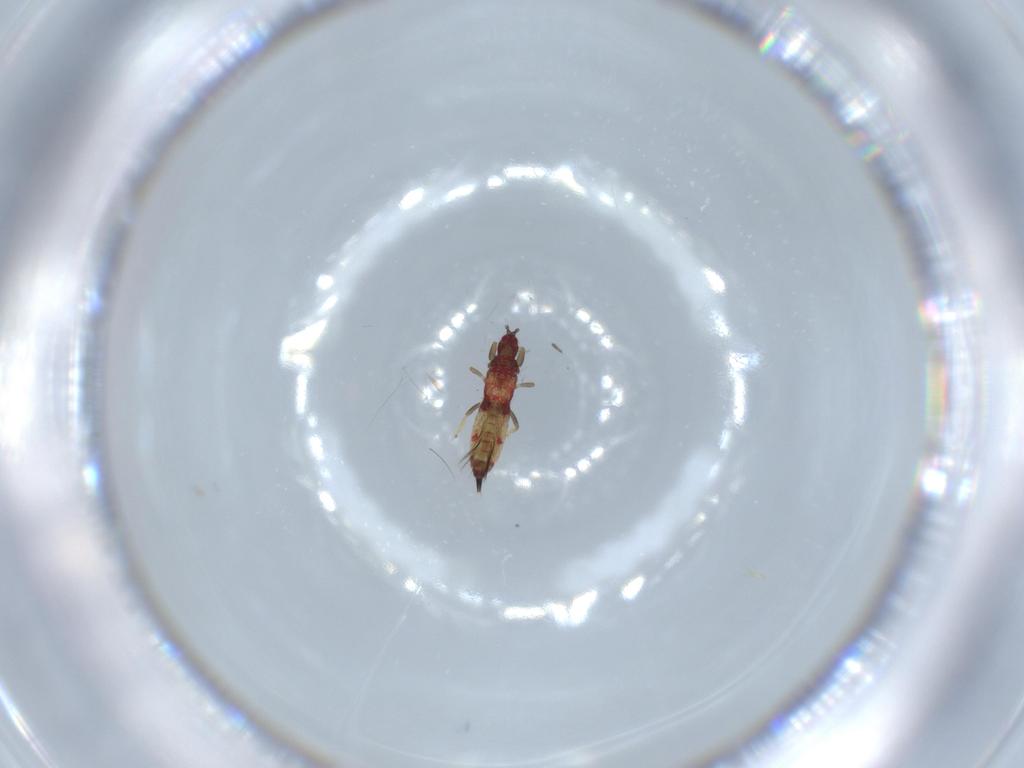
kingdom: Animalia
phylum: Arthropoda
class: Insecta
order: Thysanoptera
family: Phlaeothripidae
